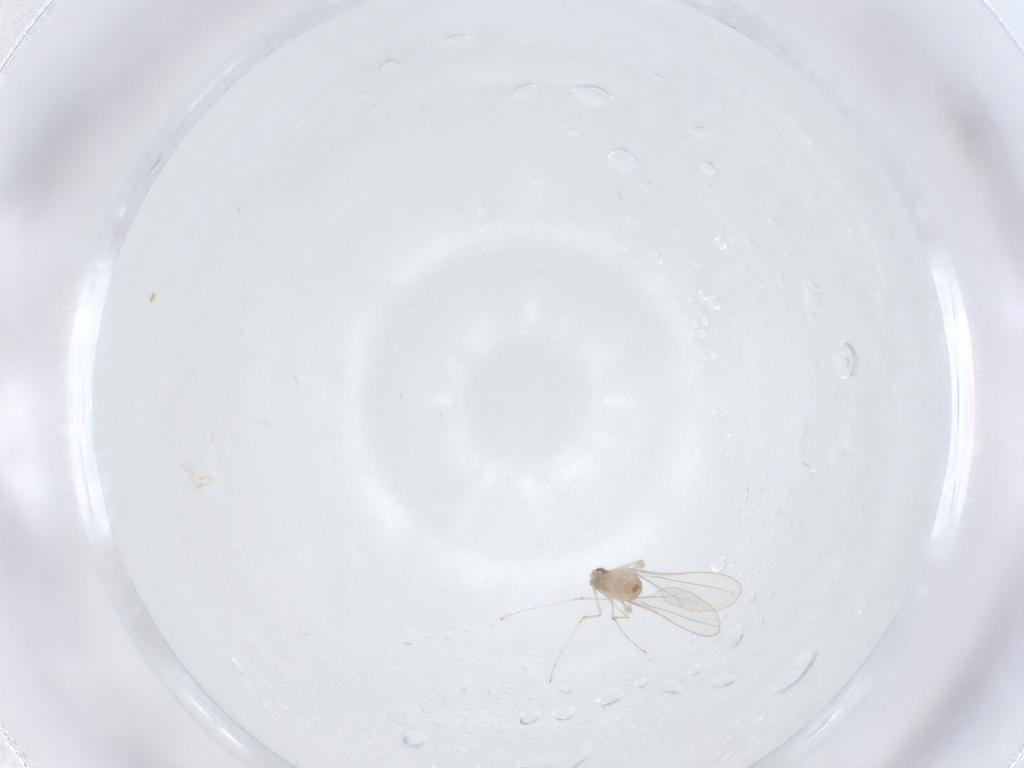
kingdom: Animalia
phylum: Arthropoda
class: Insecta
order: Diptera
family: Cecidomyiidae
